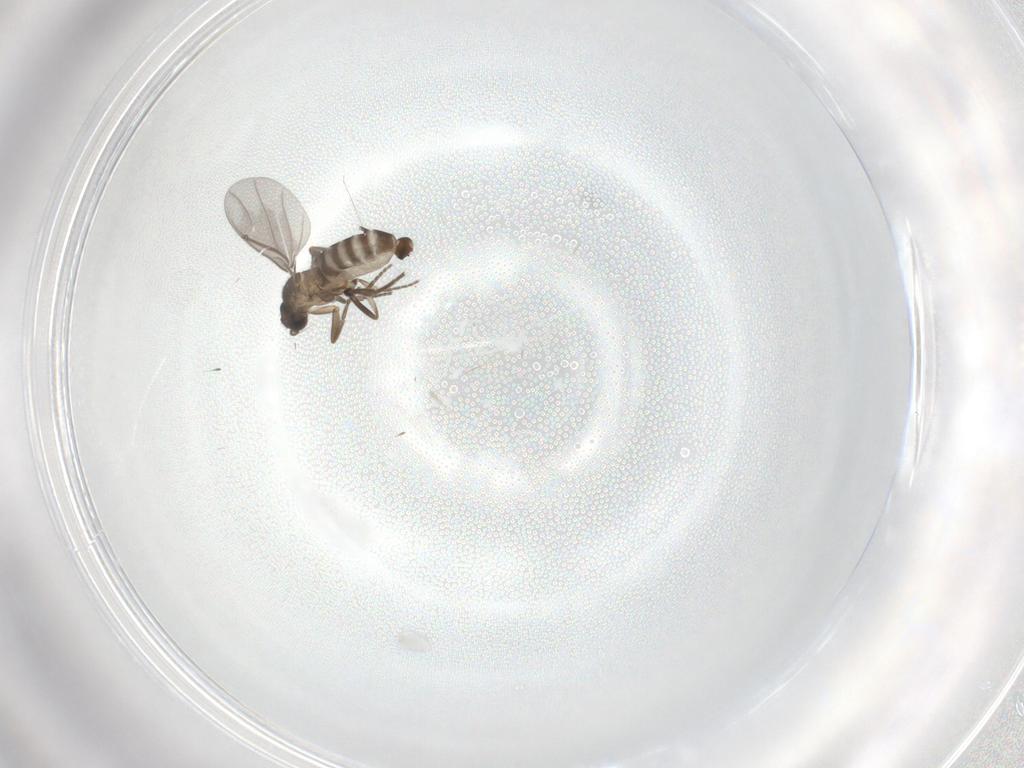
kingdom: Animalia
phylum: Arthropoda
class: Insecta
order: Diptera
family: Phoridae
